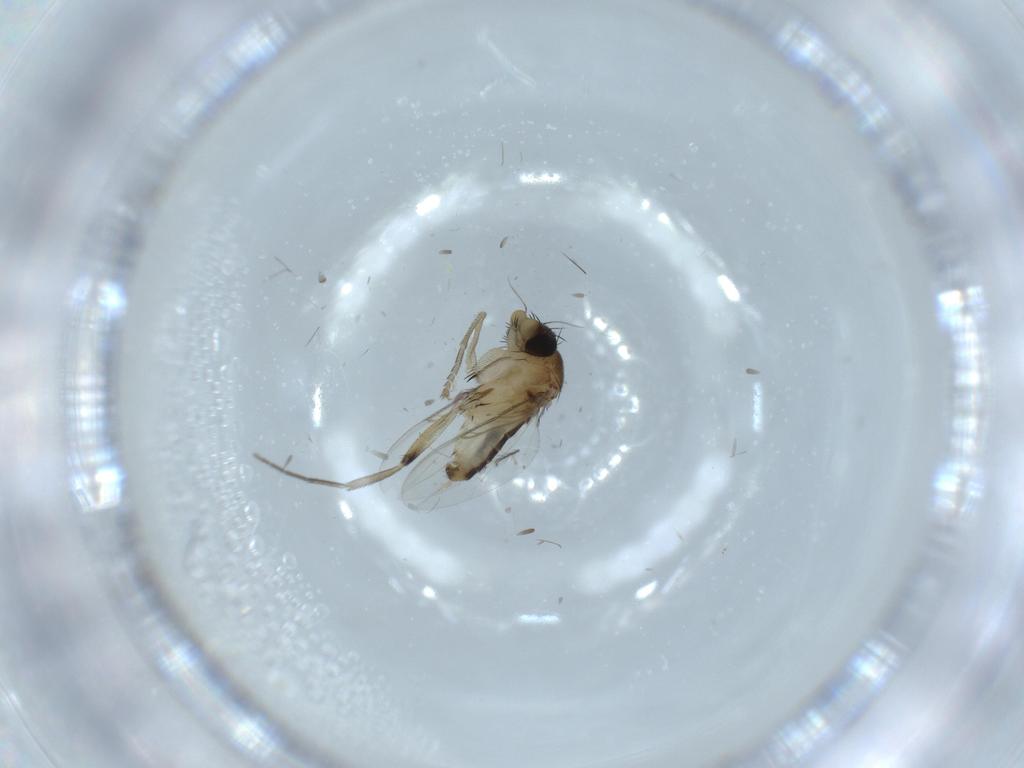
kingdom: Animalia
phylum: Arthropoda
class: Insecta
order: Diptera
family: Phoridae
